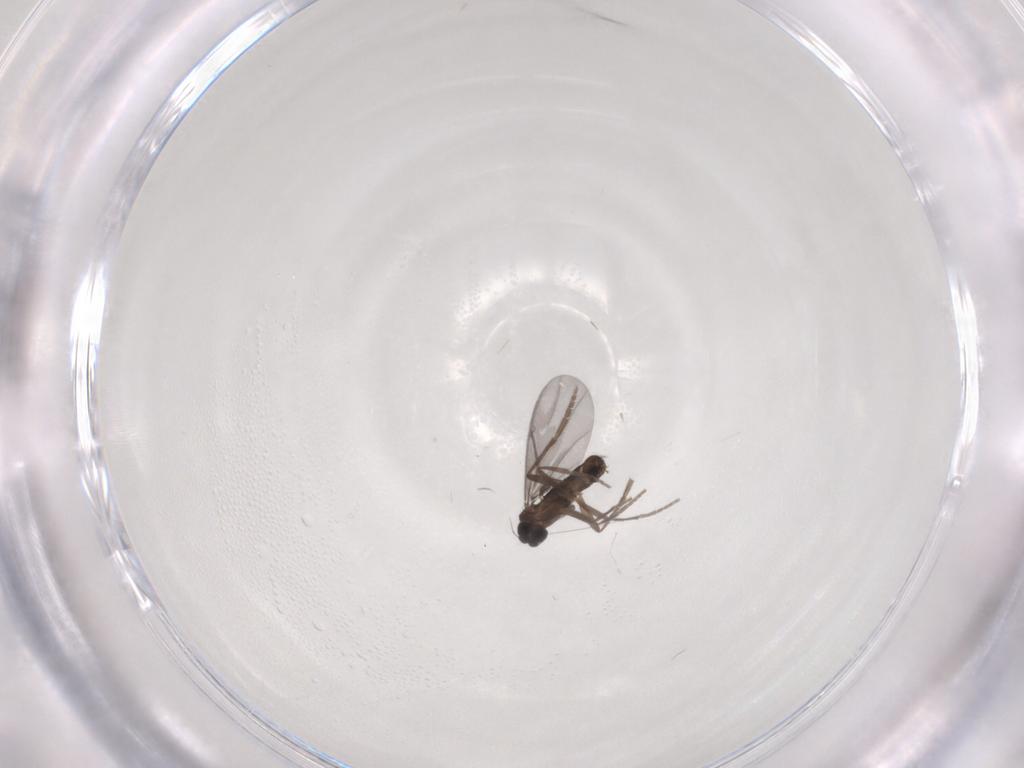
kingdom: Animalia
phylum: Arthropoda
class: Insecta
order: Diptera
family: Phoridae
